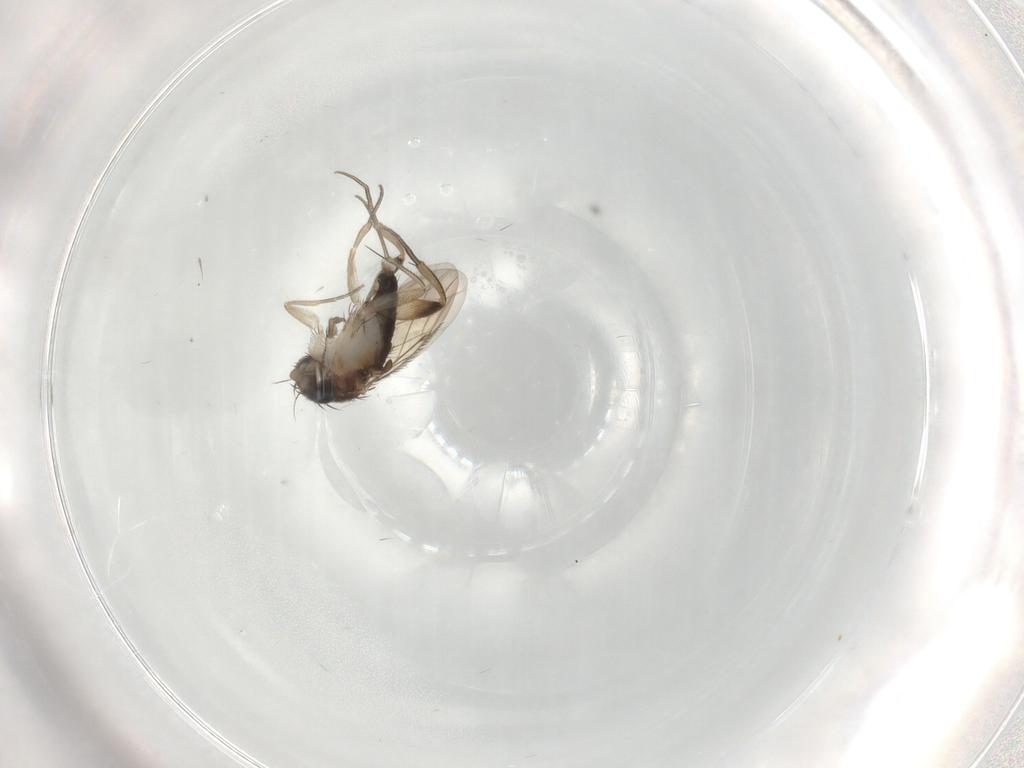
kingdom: Animalia
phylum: Arthropoda
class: Insecta
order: Diptera
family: Phoridae
